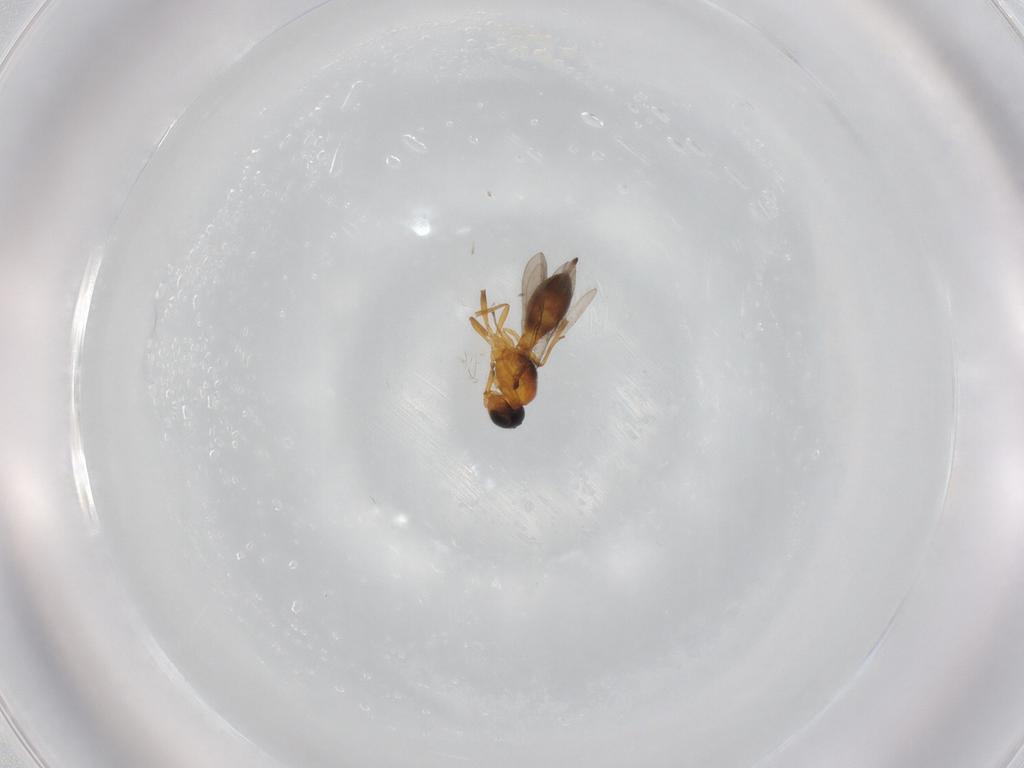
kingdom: Animalia
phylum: Arthropoda
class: Insecta
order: Hymenoptera
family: Scelionidae
